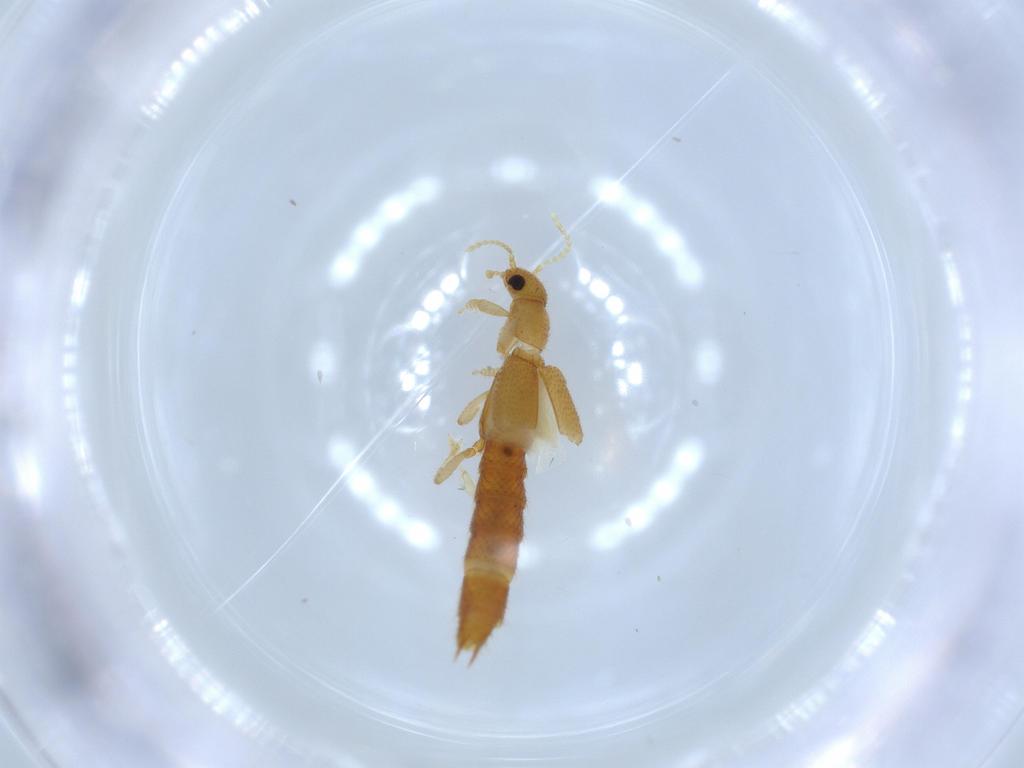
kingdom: Animalia
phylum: Arthropoda
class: Insecta
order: Coleoptera
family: Staphylinidae
